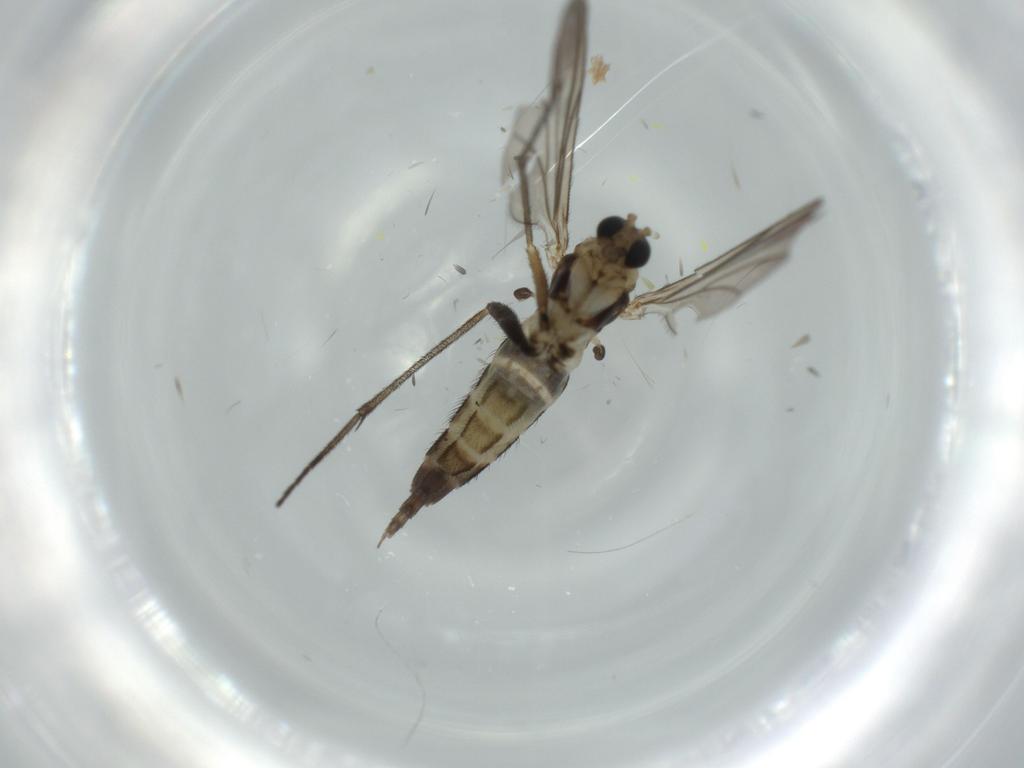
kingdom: Animalia
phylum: Arthropoda
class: Insecta
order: Diptera
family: Sciaridae
